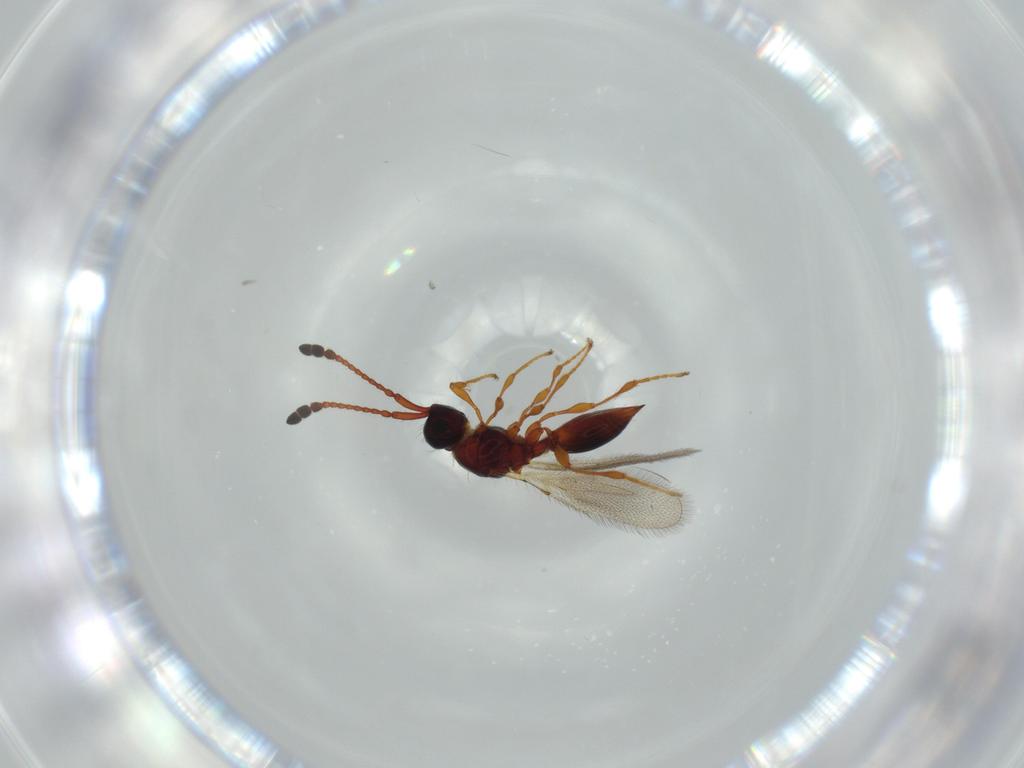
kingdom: Animalia
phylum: Arthropoda
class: Insecta
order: Hymenoptera
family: Diapriidae
